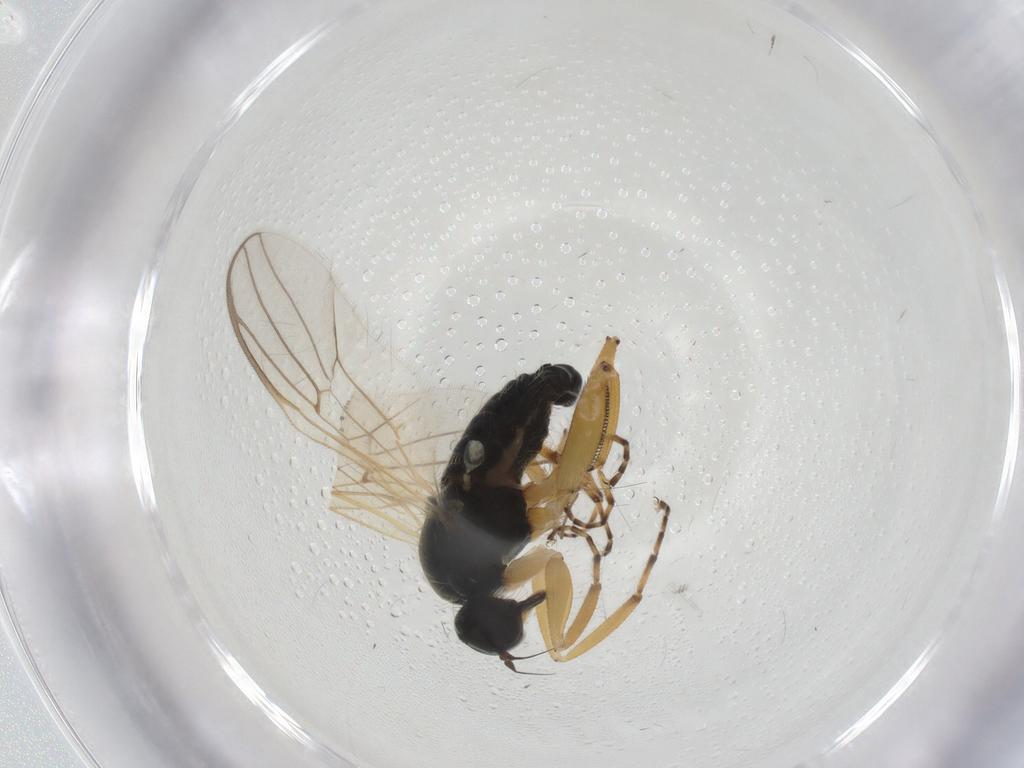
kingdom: Animalia
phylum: Arthropoda
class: Insecta
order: Diptera
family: Hybotidae
